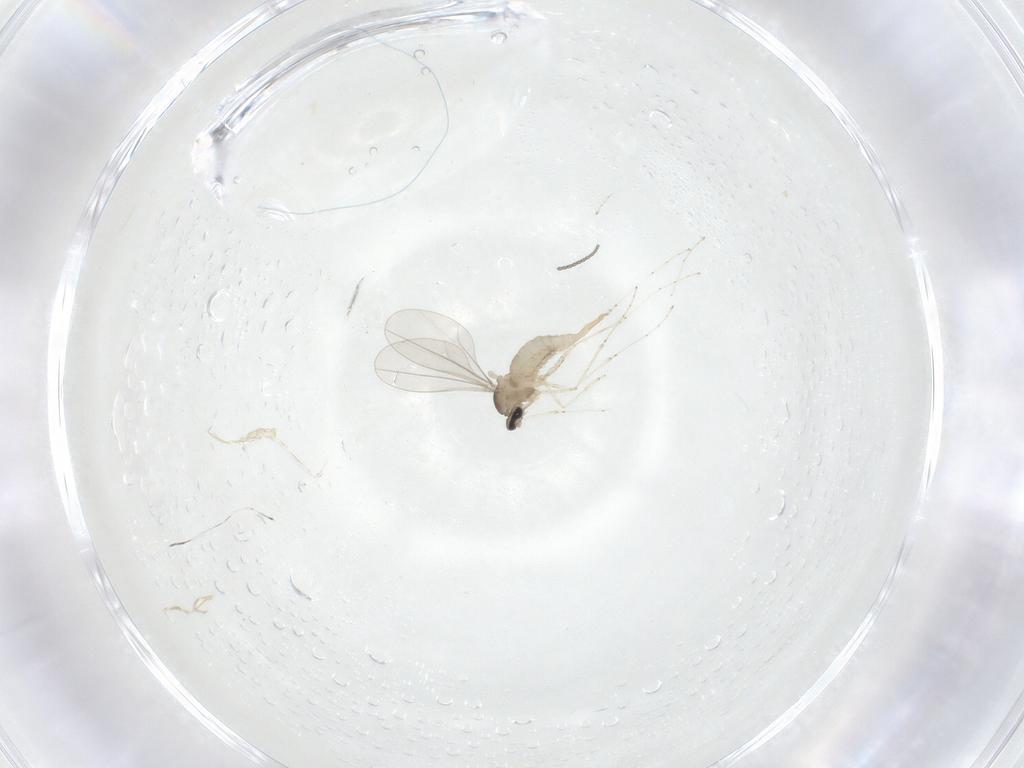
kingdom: Animalia
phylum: Arthropoda
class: Insecta
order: Diptera
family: Cecidomyiidae
